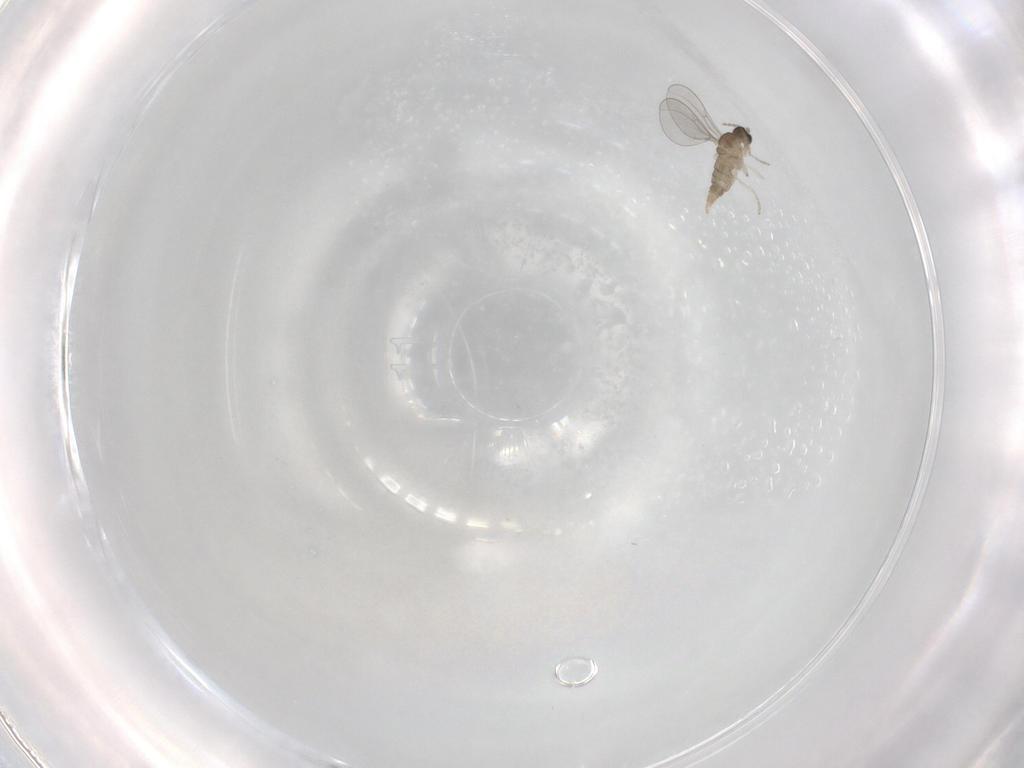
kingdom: Animalia
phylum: Arthropoda
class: Insecta
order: Diptera
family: Cecidomyiidae
